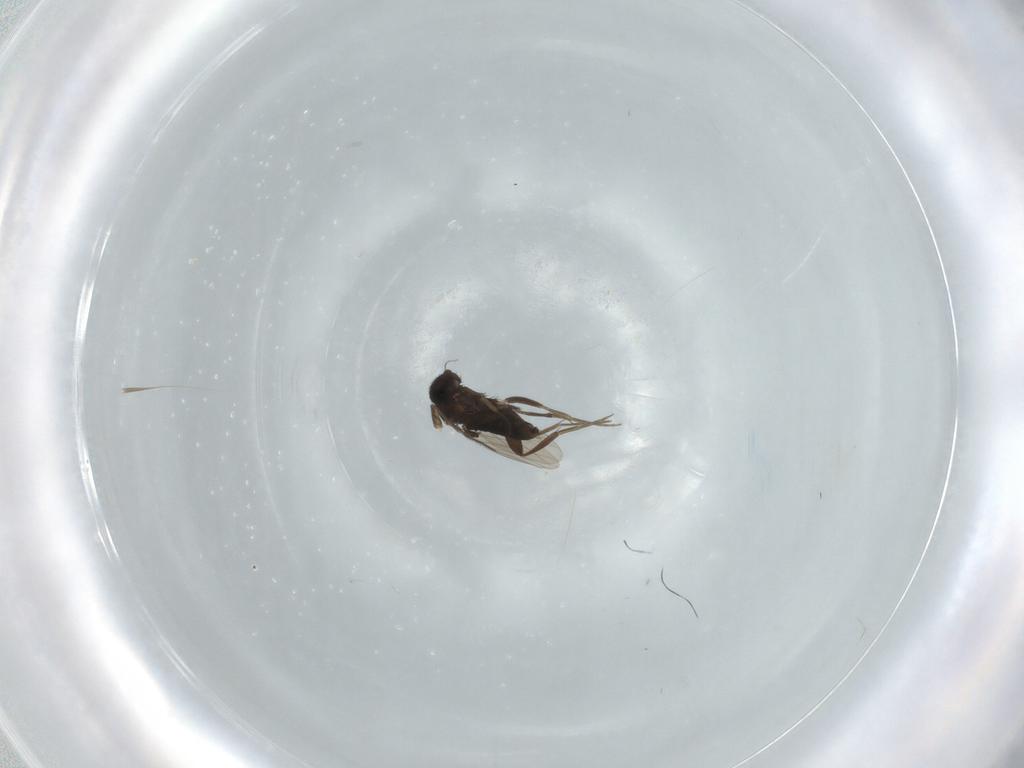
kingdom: Animalia
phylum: Arthropoda
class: Insecta
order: Diptera
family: Phoridae
